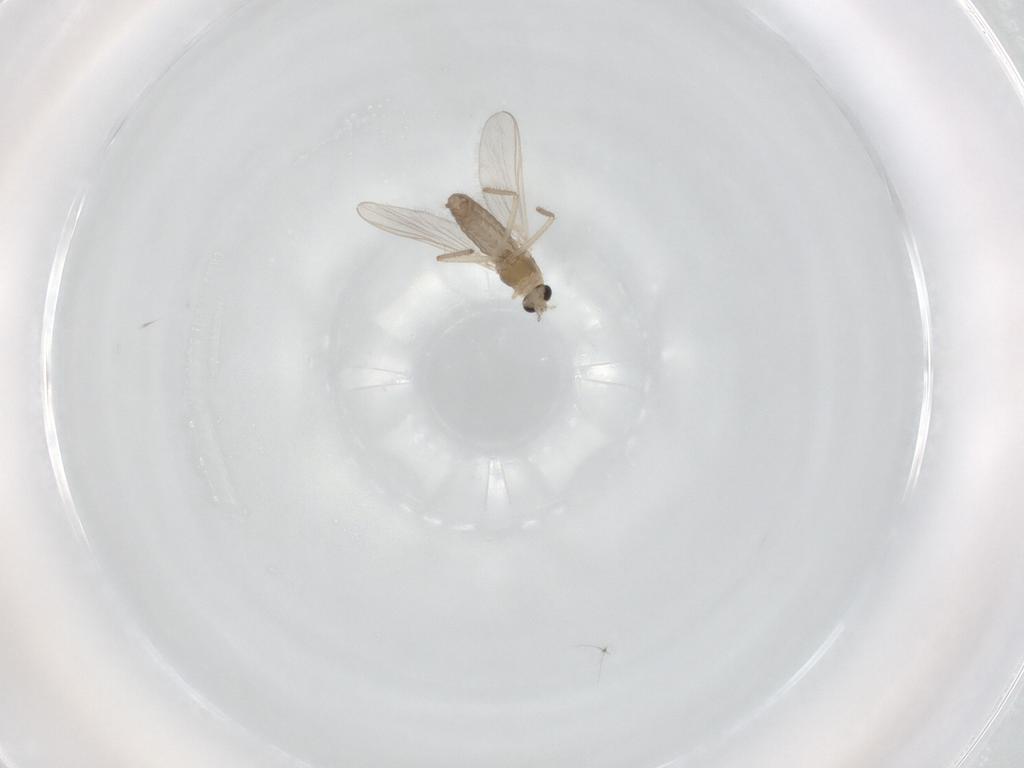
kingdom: Animalia
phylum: Arthropoda
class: Insecta
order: Diptera
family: Chironomidae
